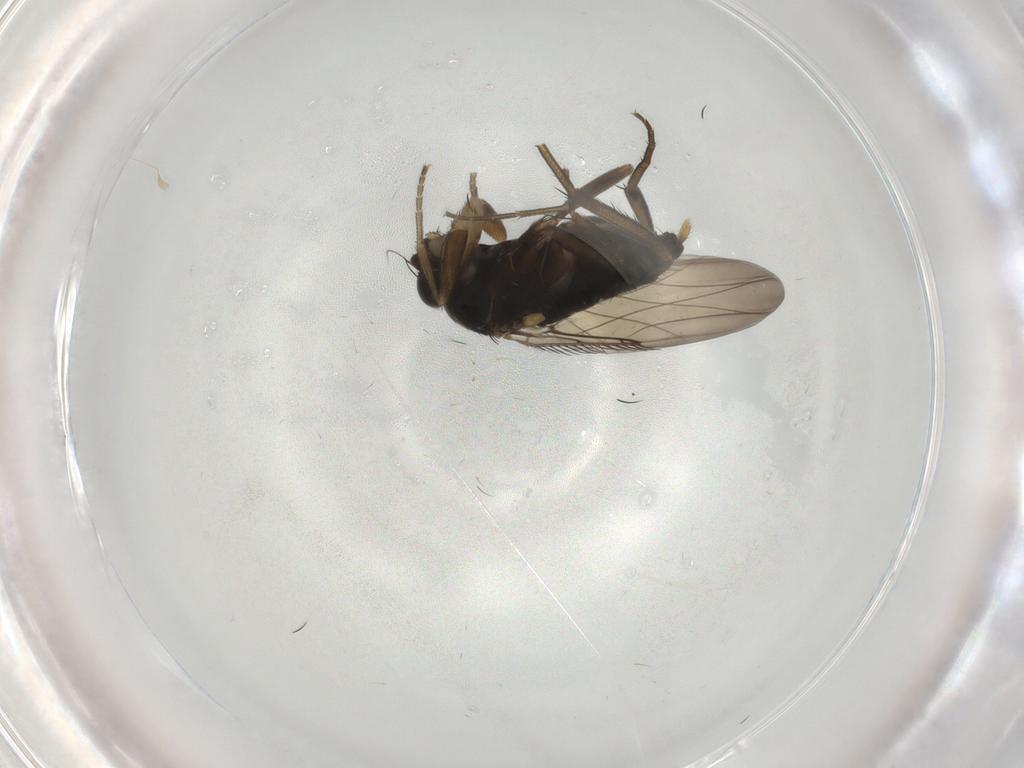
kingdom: Animalia
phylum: Arthropoda
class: Insecta
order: Diptera
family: Phoridae
